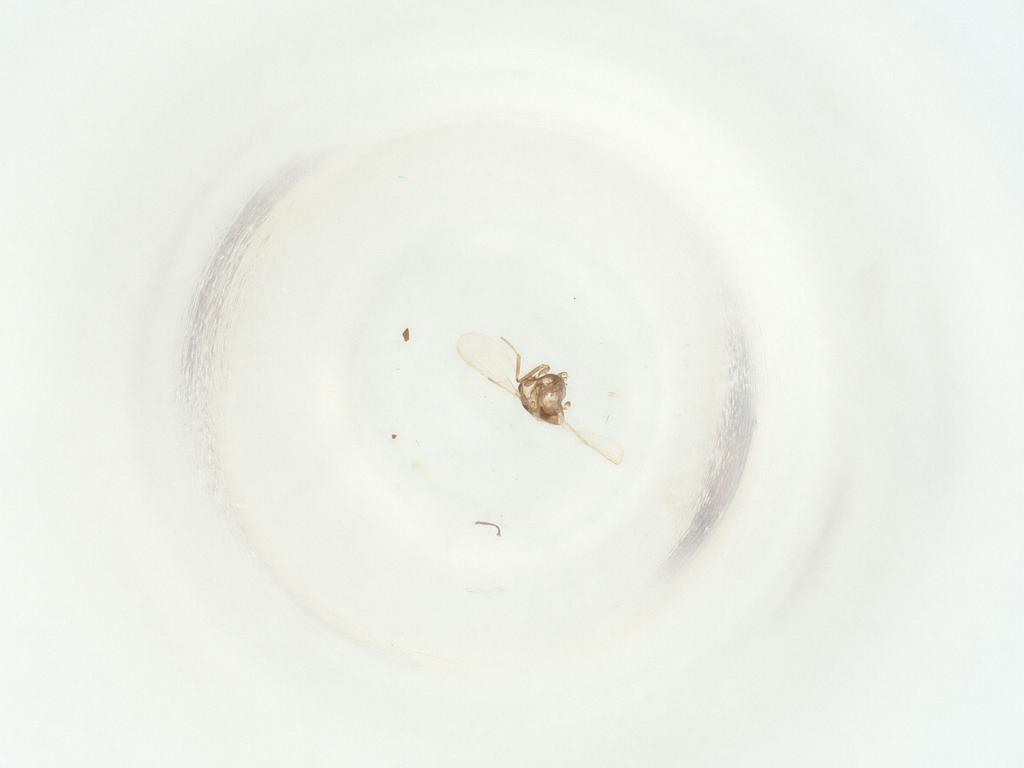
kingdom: Animalia
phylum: Arthropoda
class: Insecta
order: Diptera
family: Ceratopogonidae
